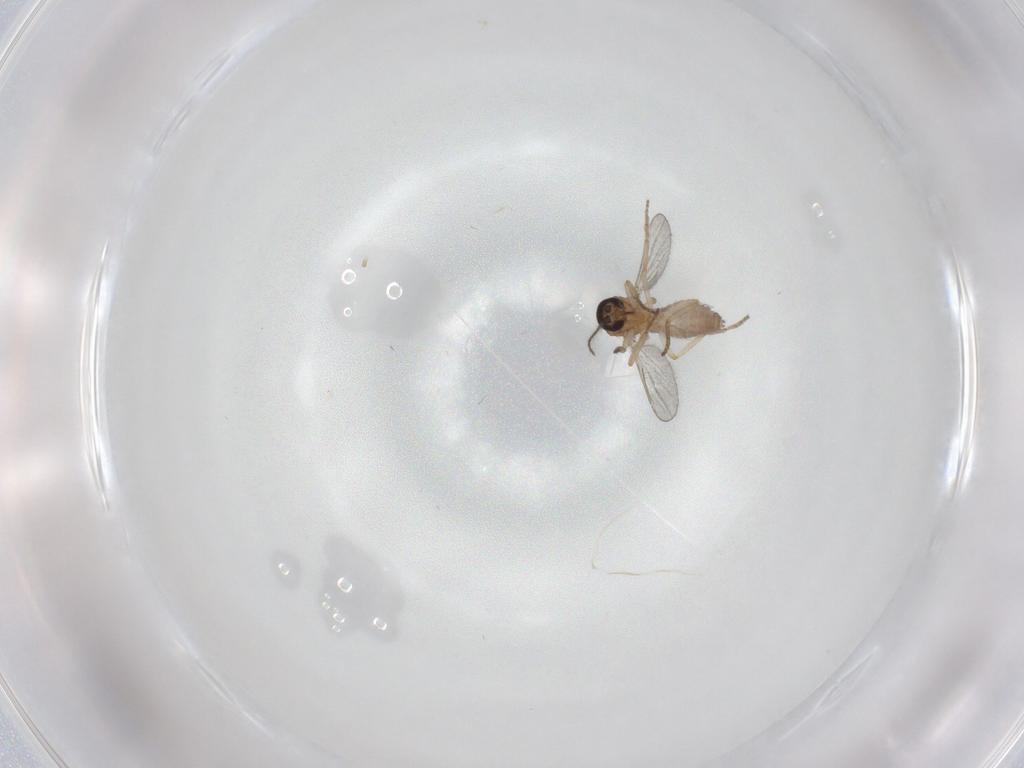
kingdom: Animalia
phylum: Arthropoda
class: Insecta
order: Diptera
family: Ceratopogonidae
